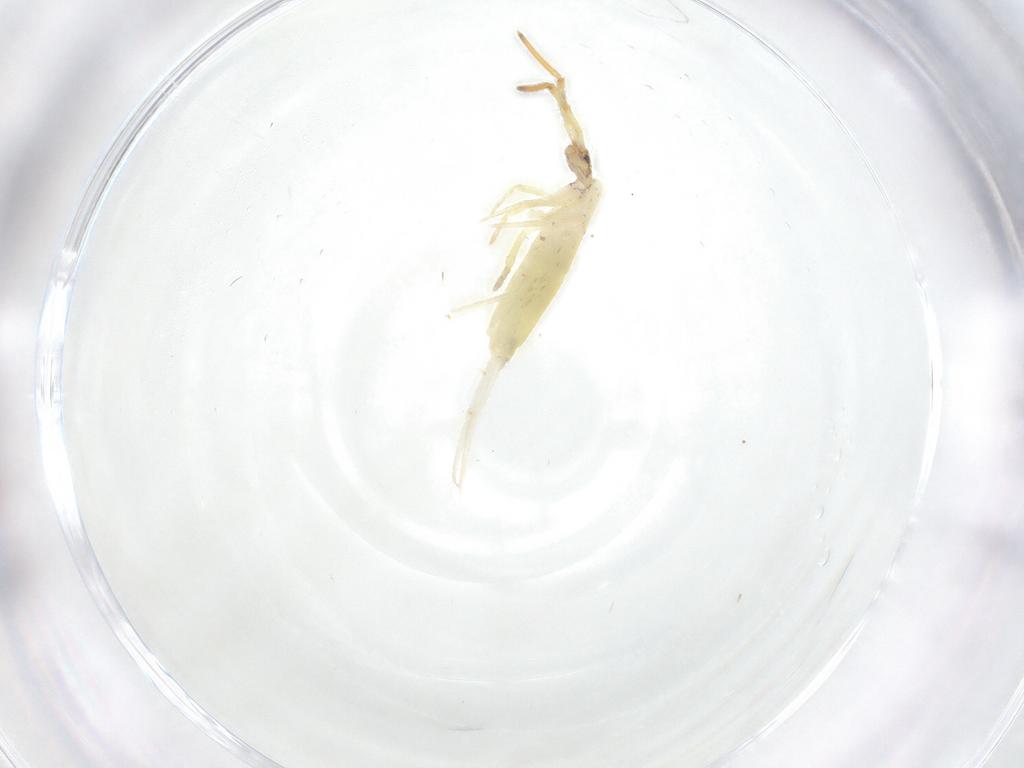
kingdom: Animalia
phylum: Arthropoda
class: Collembola
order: Entomobryomorpha
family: Entomobryidae
